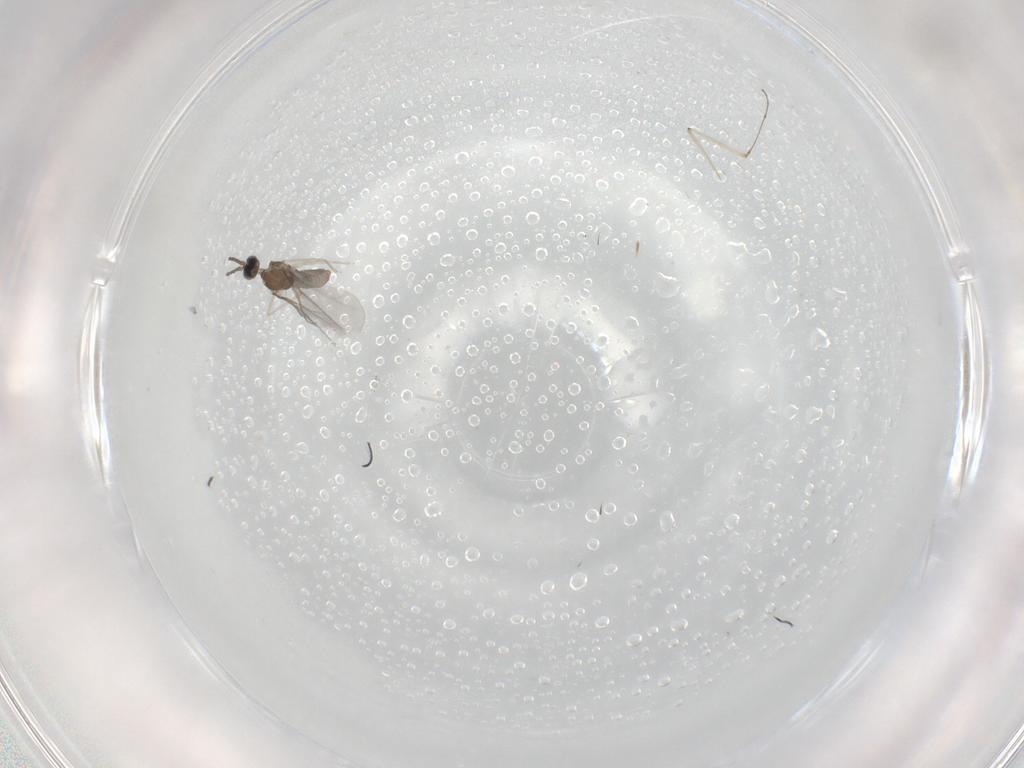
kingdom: Animalia
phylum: Arthropoda
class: Insecta
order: Diptera
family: Cecidomyiidae
